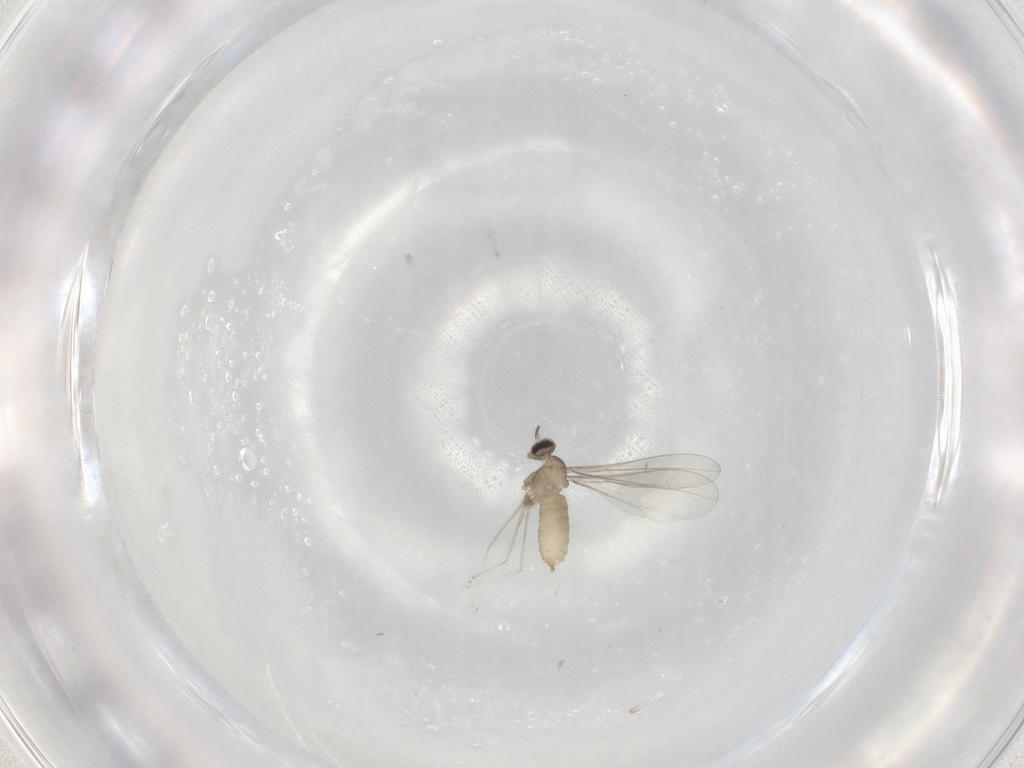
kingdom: Animalia
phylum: Arthropoda
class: Insecta
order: Diptera
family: Cecidomyiidae
